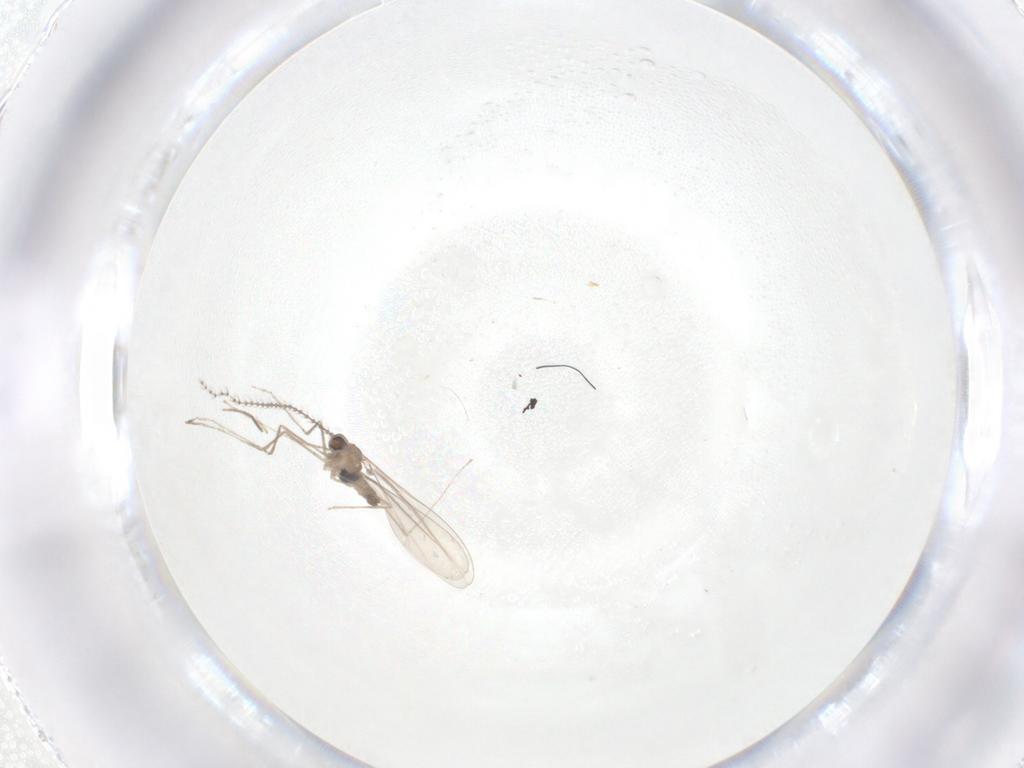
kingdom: Animalia
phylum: Arthropoda
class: Insecta
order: Diptera
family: Cecidomyiidae
